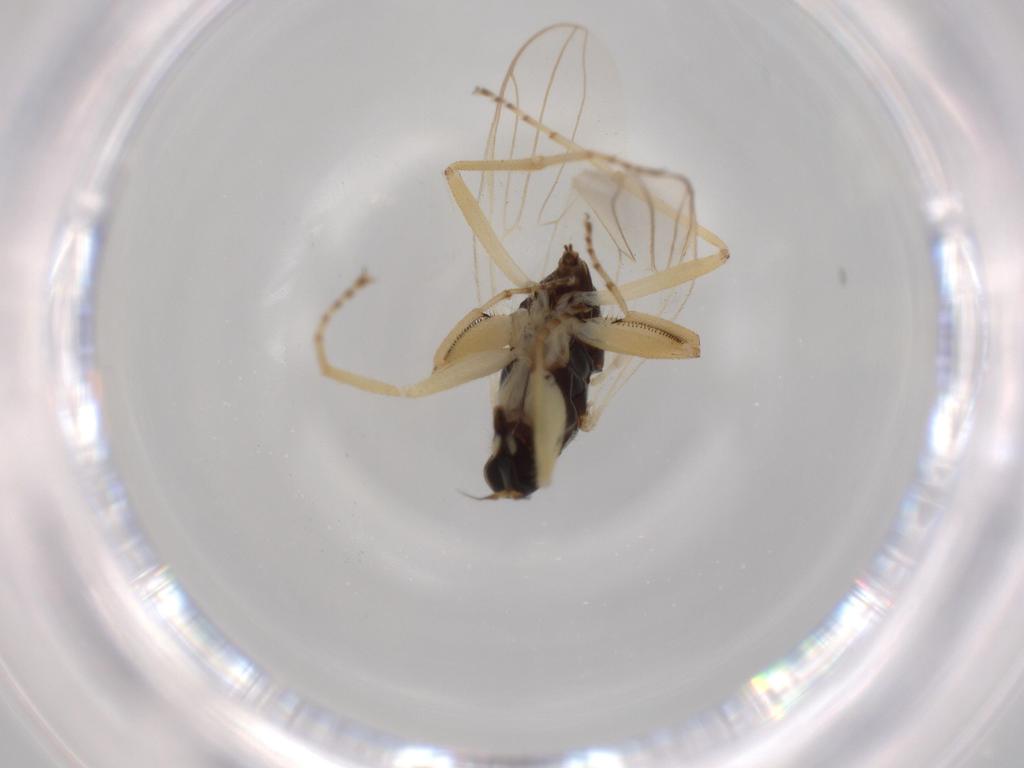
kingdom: Animalia
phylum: Arthropoda
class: Insecta
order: Diptera
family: Hybotidae
